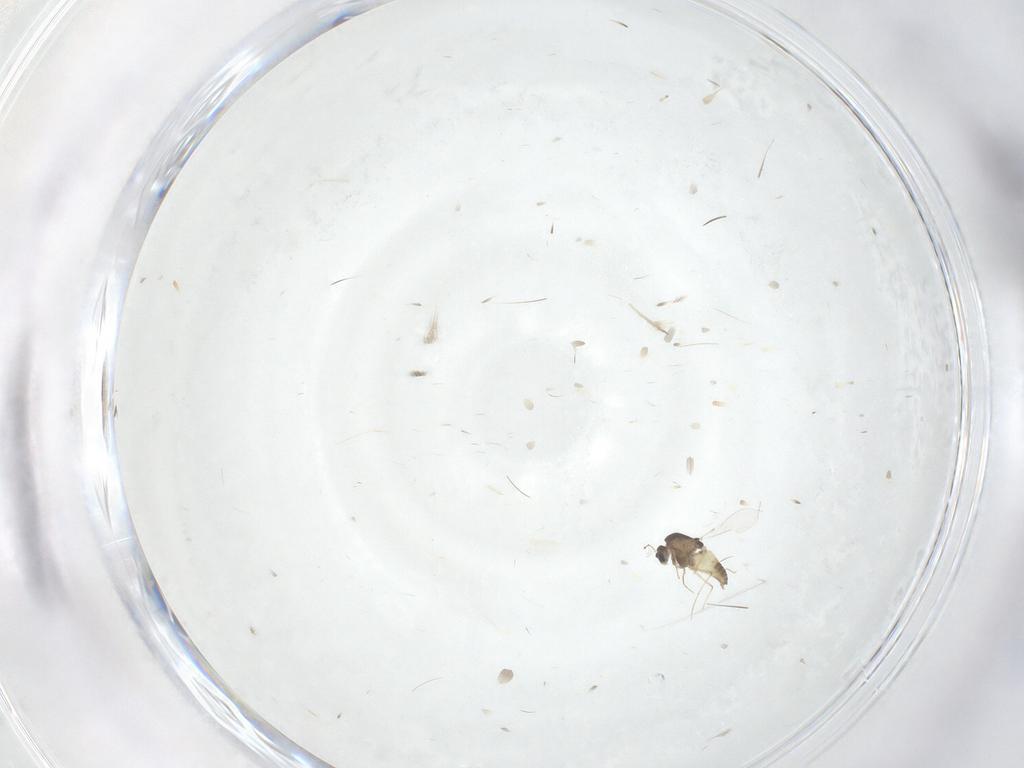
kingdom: Animalia
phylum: Arthropoda
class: Insecta
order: Diptera
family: Chironomidae
